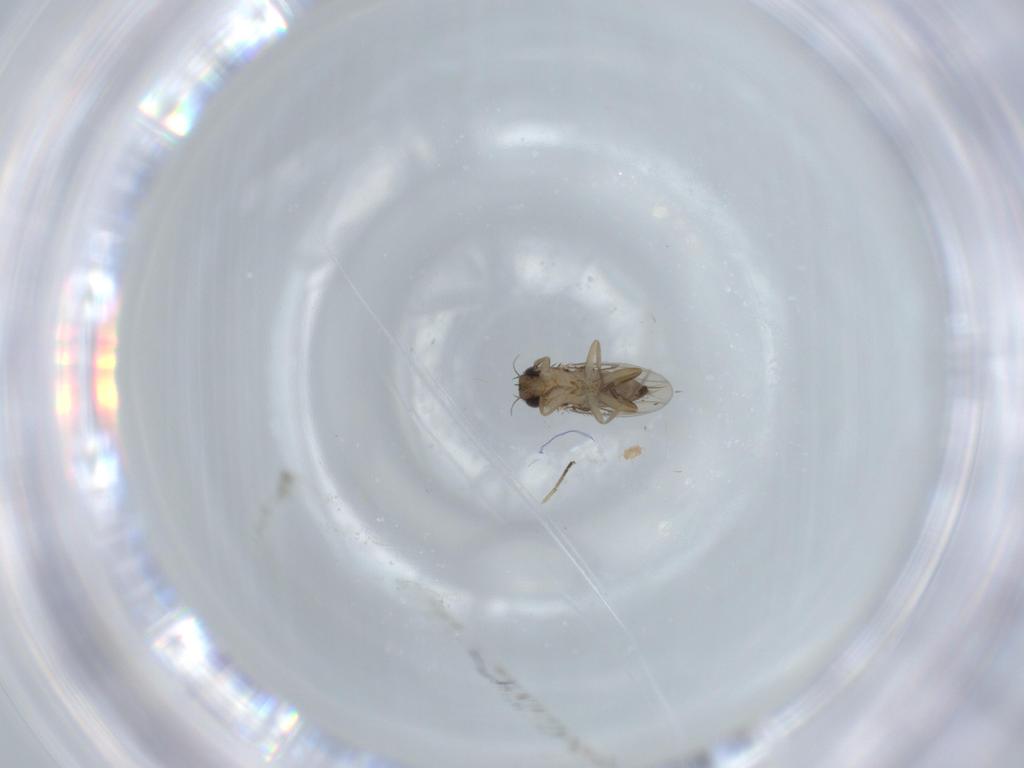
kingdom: Animalia
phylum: Arthropoda
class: Insecta
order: Diptera
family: Phoridae
